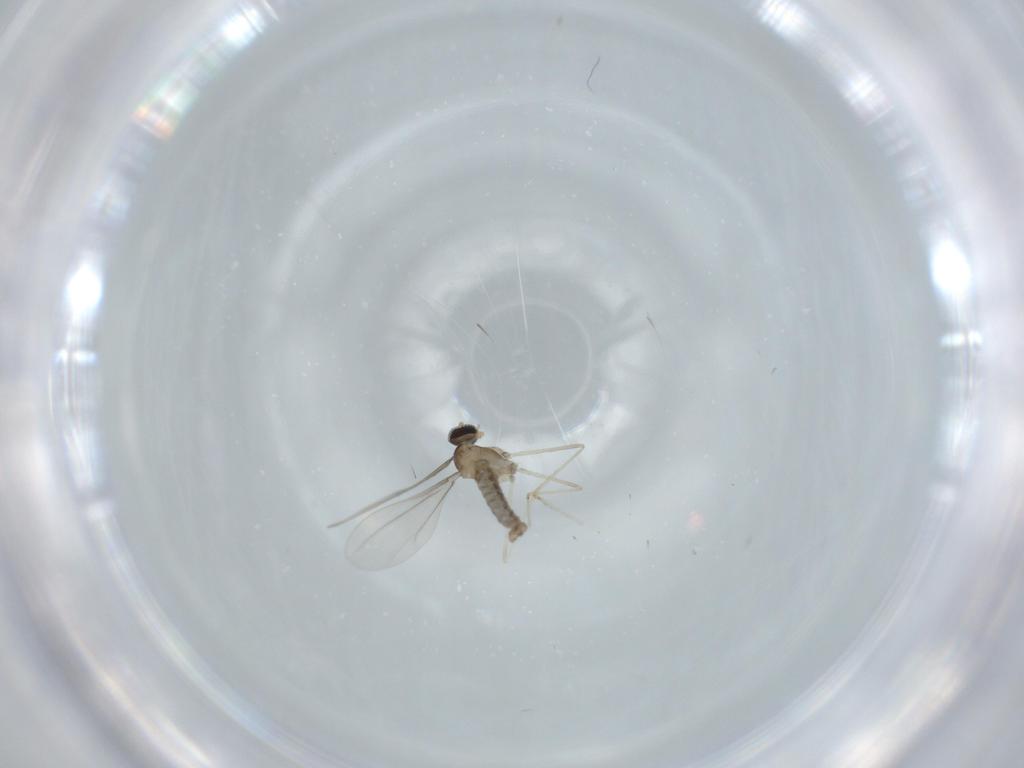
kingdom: Animalia
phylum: Arthropoda
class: Insecta
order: Diptera
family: Cecidomyiidae
